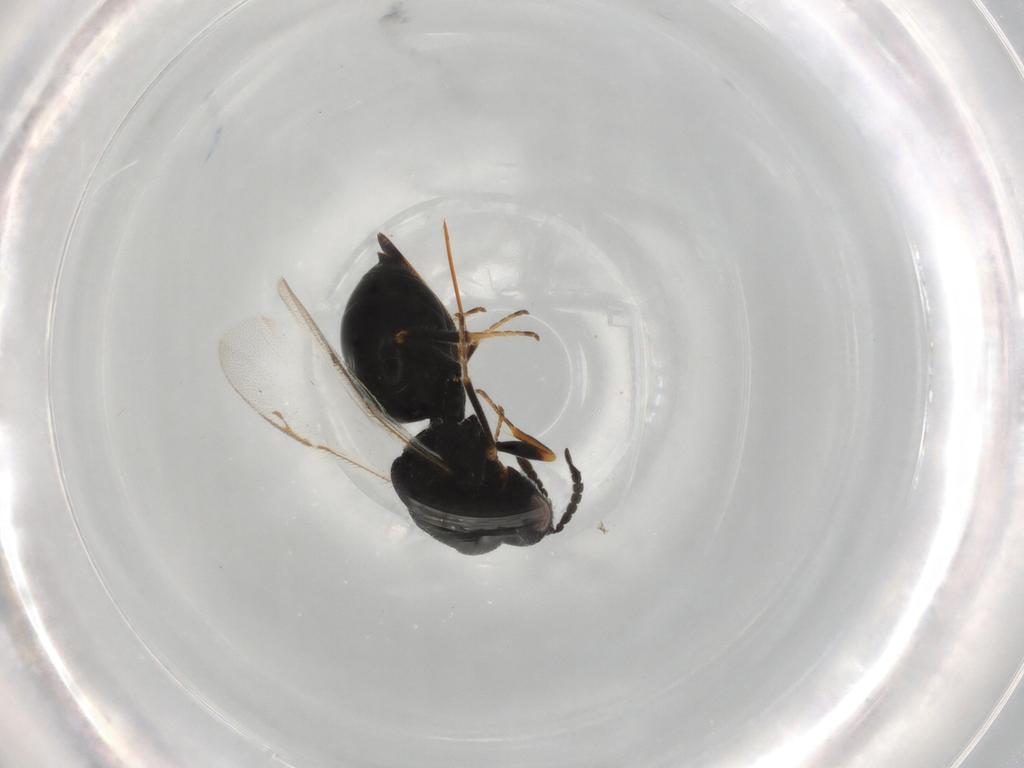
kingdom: Animalia
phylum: Arthropoda
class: Insecta
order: Hymenoptera
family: Eurytomidae
